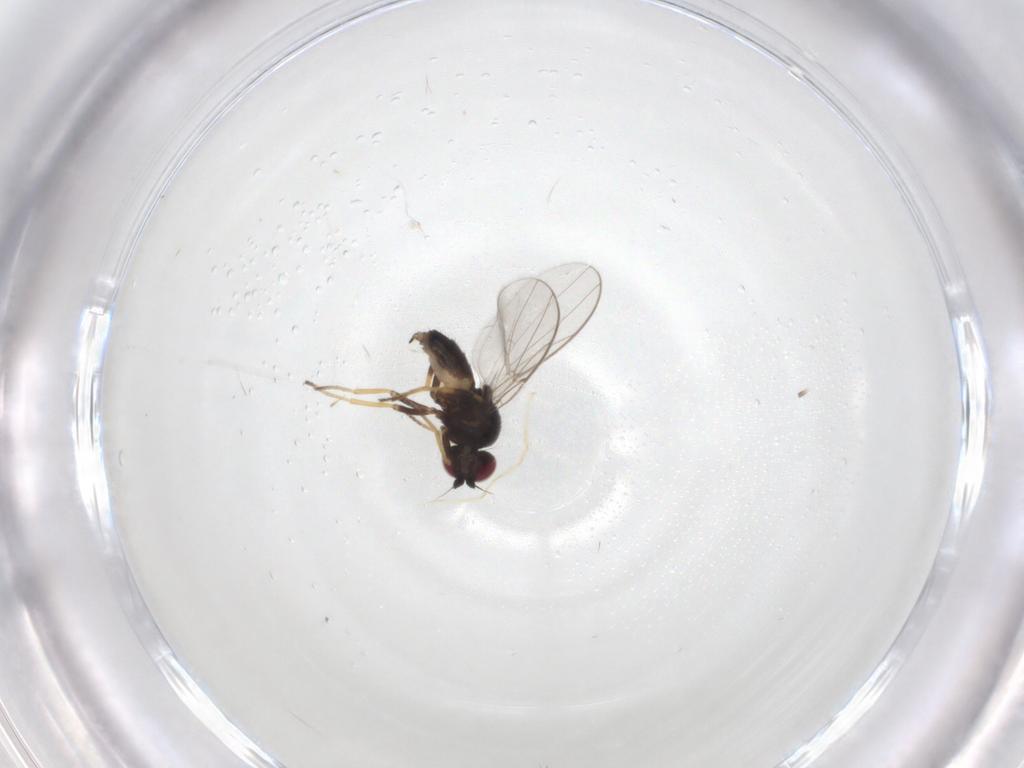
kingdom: Animalia
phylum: Arthropoda
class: Insecta
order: Diptera
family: Chloropidae
